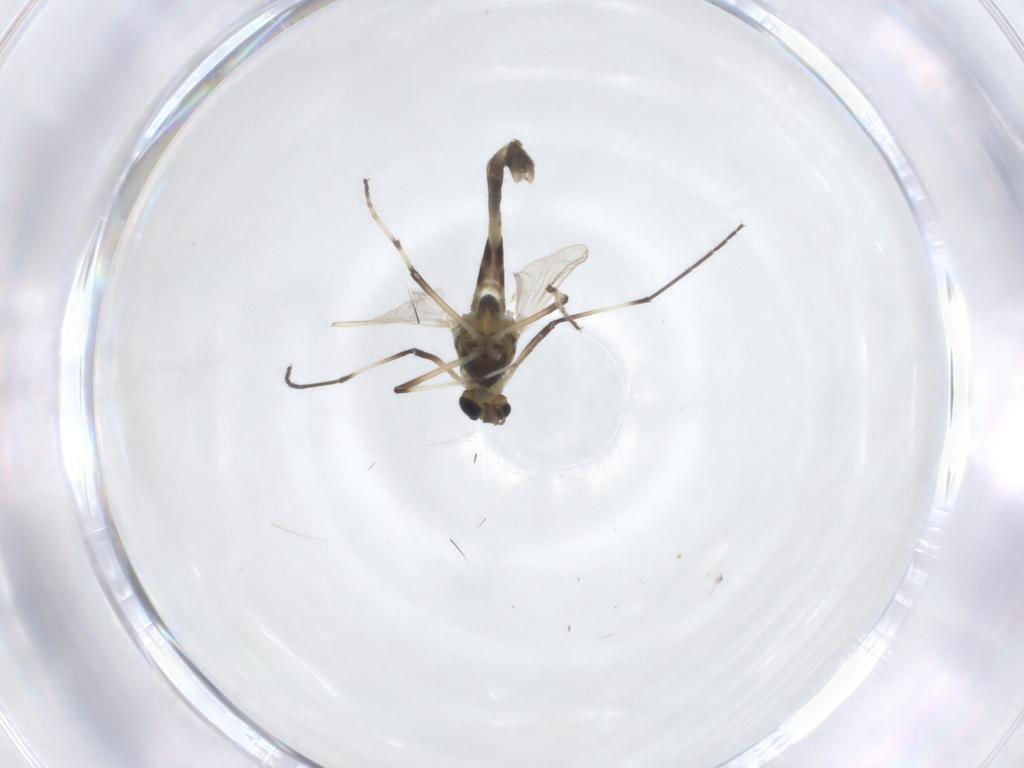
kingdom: Animalia
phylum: Arthropoda
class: Insecta
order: Diptera
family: Chironomidae
